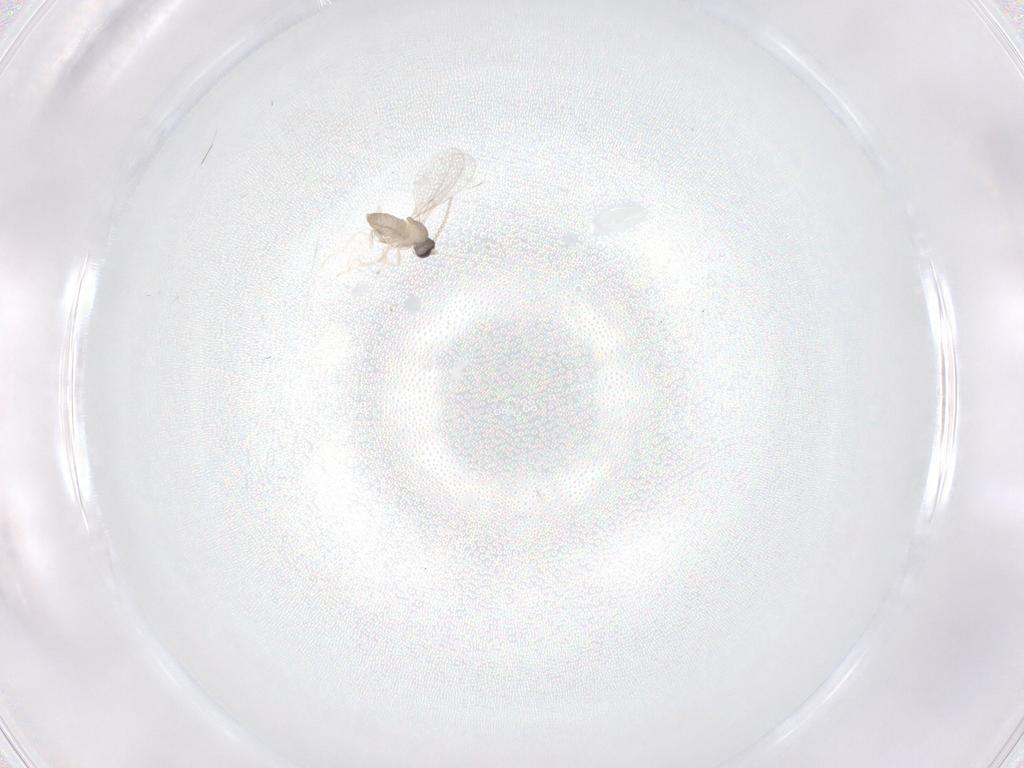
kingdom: Animalia
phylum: Arthropoda
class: Insecta
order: Diptera
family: Cecidomyiidae
